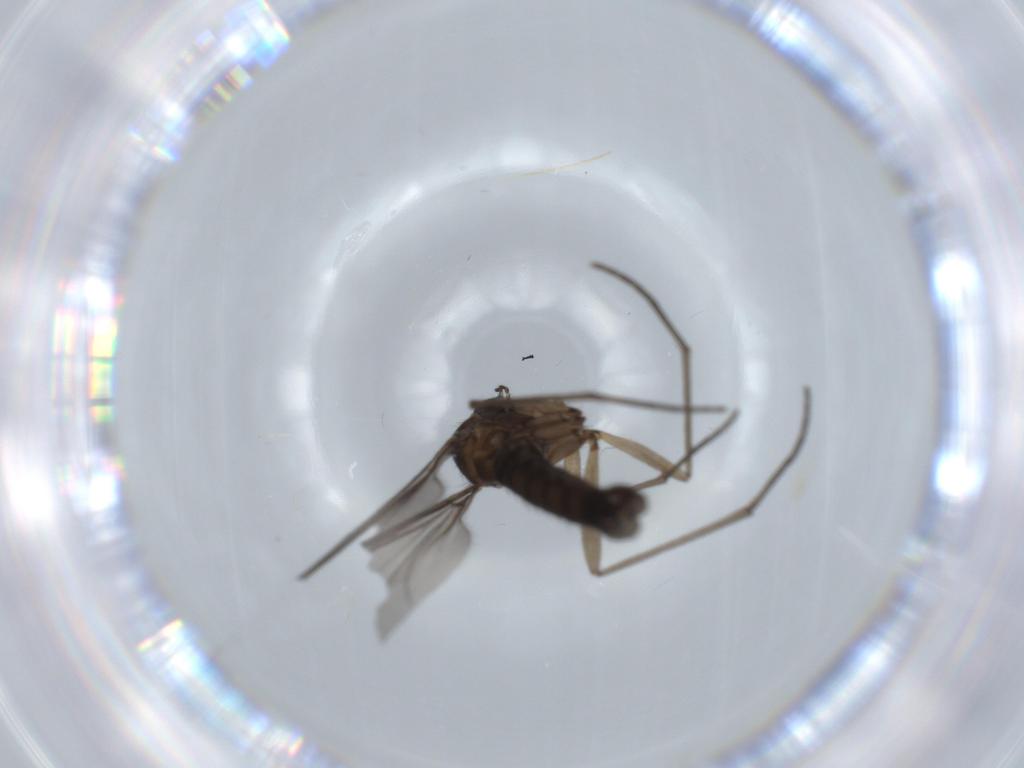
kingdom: Animalia
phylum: Arthropoda
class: Insecta
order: Diptera
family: Sciaridae
